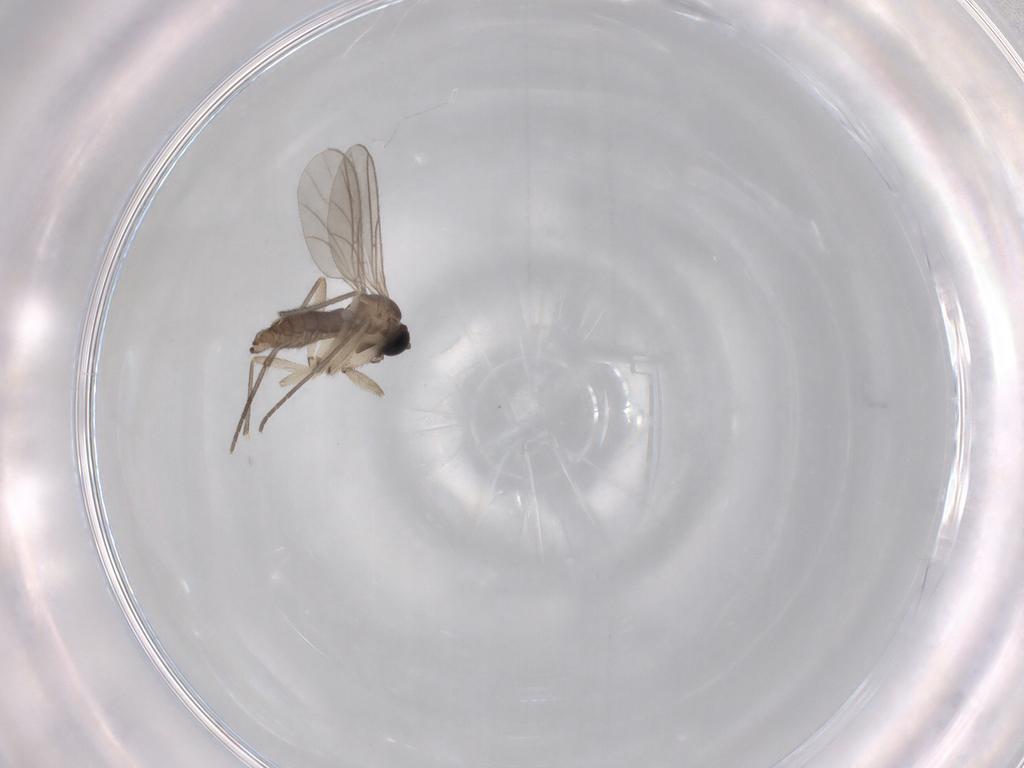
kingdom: Animalia
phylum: Arthropoda
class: Insecta
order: Diptera
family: Sciaridae
